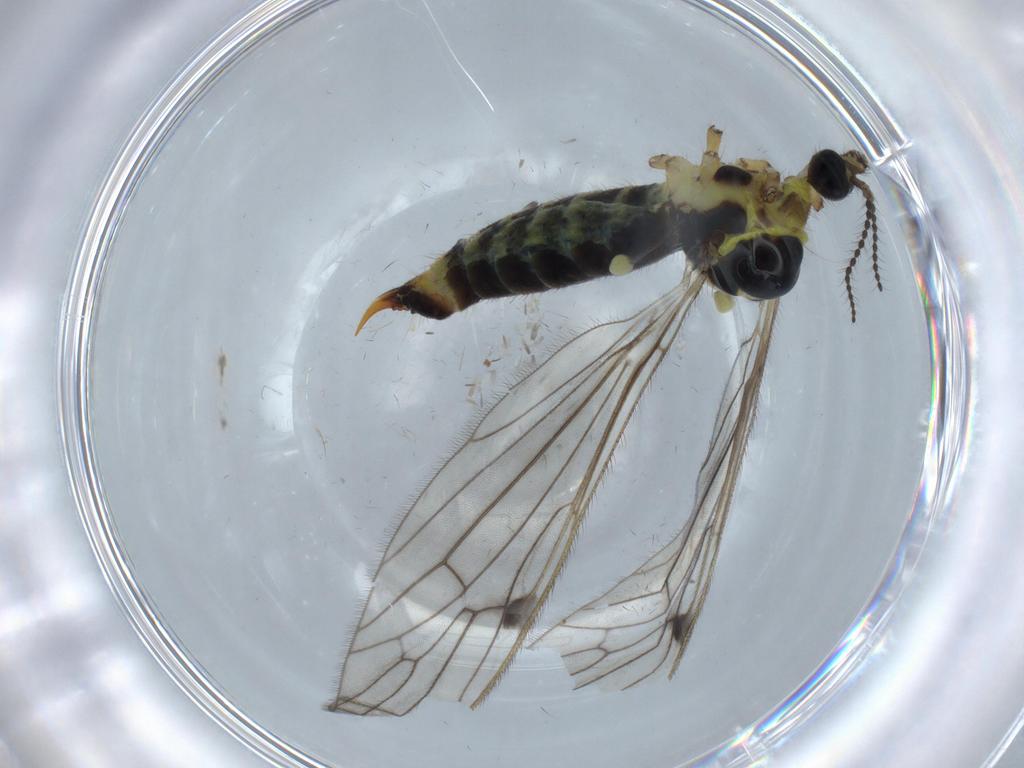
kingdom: Animalia
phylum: Arthropoda
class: Insecta
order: Diptera
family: Limoniidae
